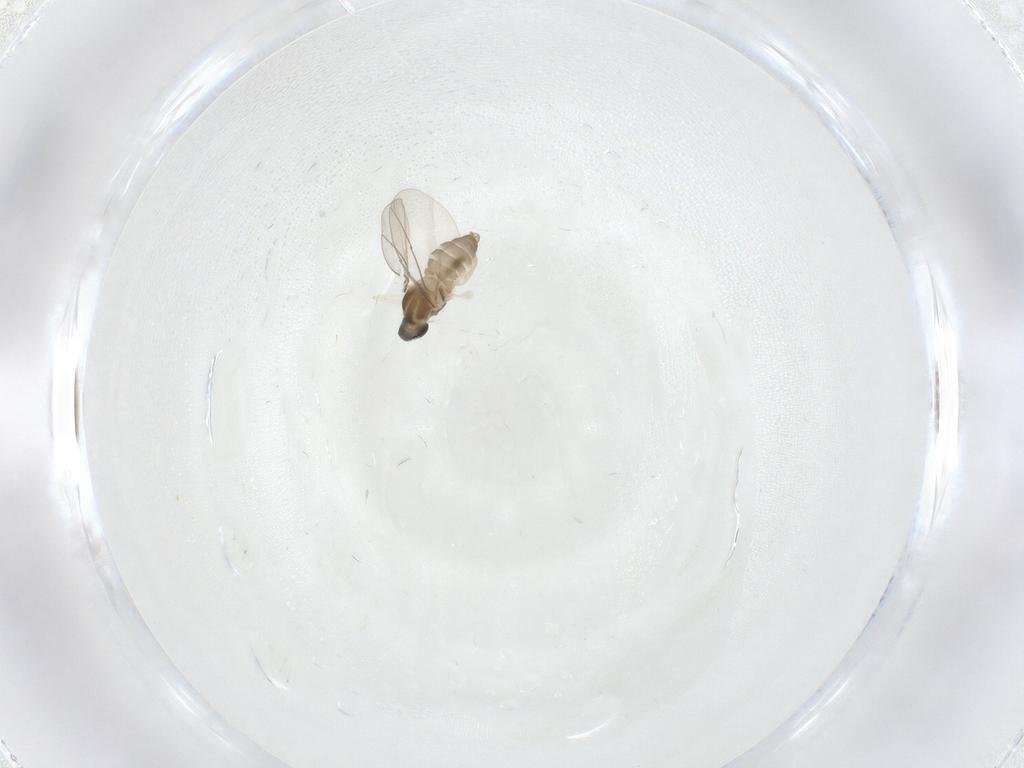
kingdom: Animalia
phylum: Arthropoda
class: Insecta
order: Diptera
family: Cecidomyiidae
